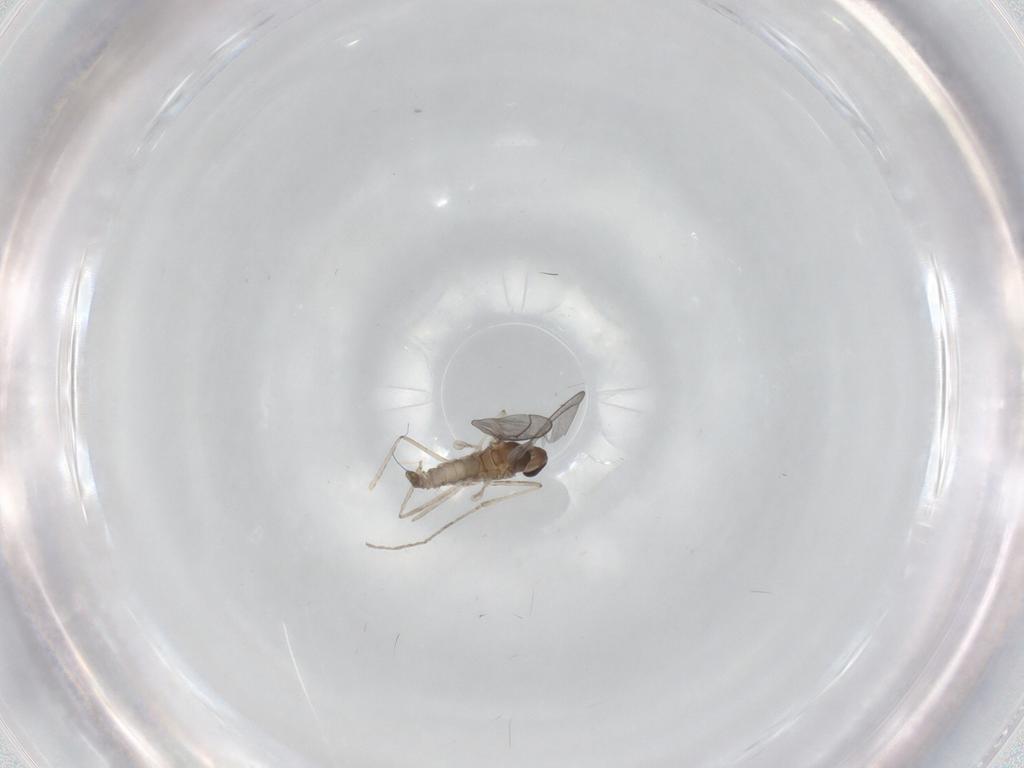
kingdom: Animalia
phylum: Arthropoda
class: Insecta
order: Diptera
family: Cecidomyiidae
